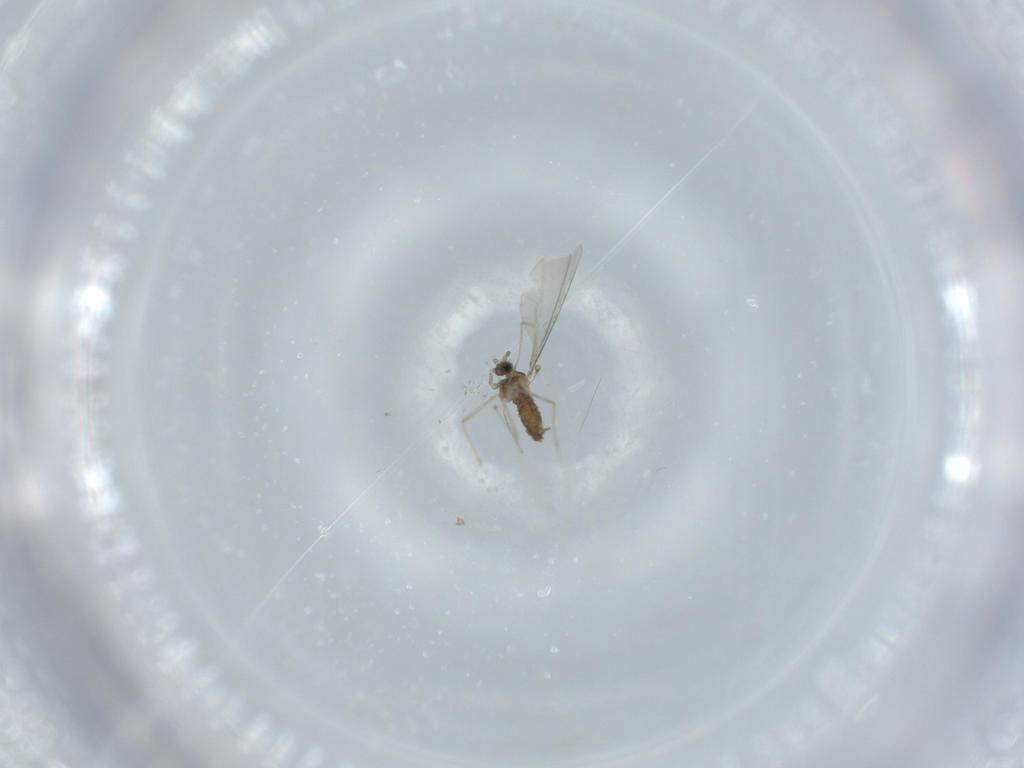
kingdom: Animalia
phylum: Arthropoda
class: Insecta
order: Diptera
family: Cecidomyiidae
